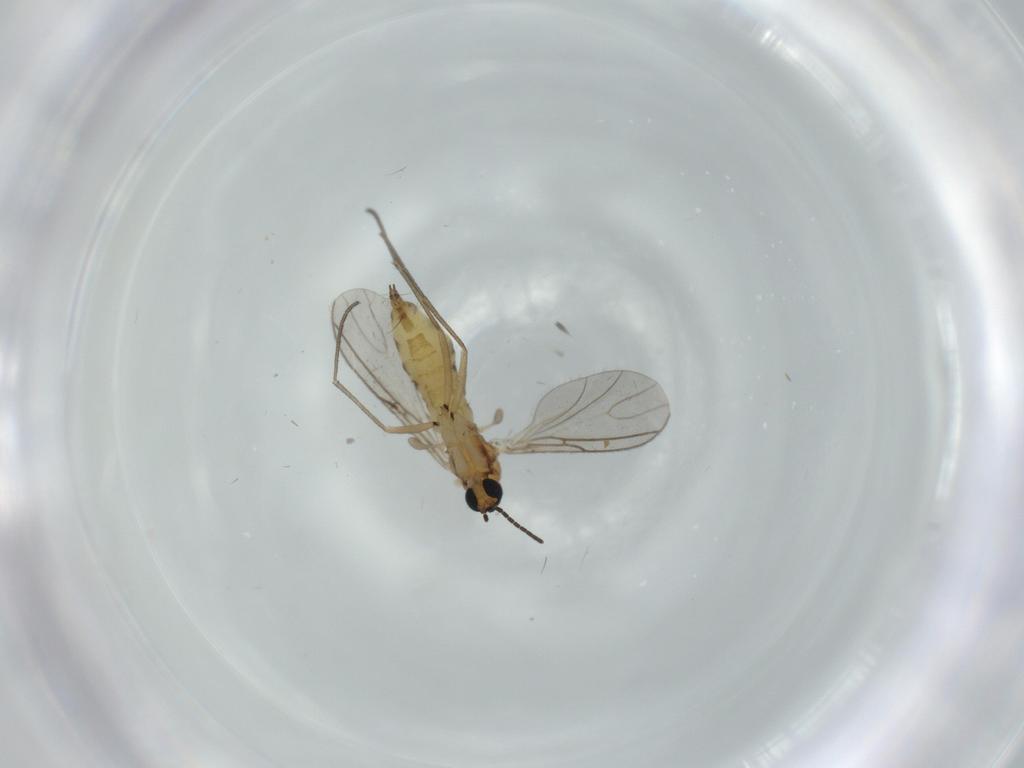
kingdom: Animalia
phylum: Arthropoda
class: Insecta
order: Diptera
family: Sciaridae
